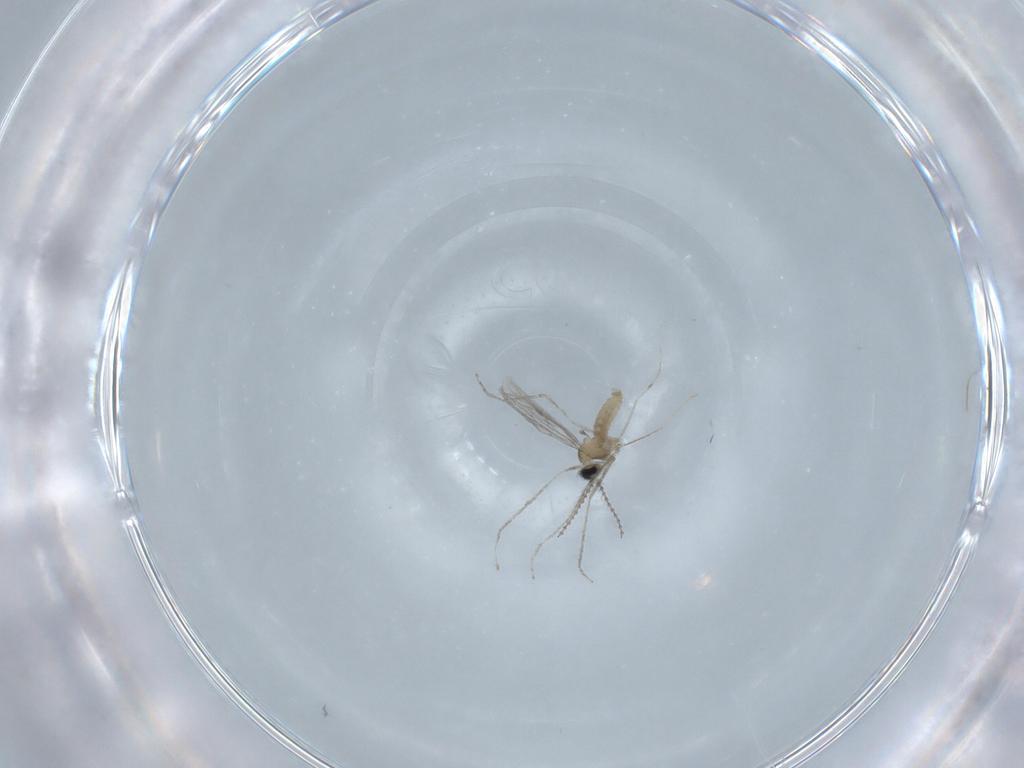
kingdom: Animalia
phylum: Arthropoda
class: Insecta
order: Diptera
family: Cecidomyiidae
